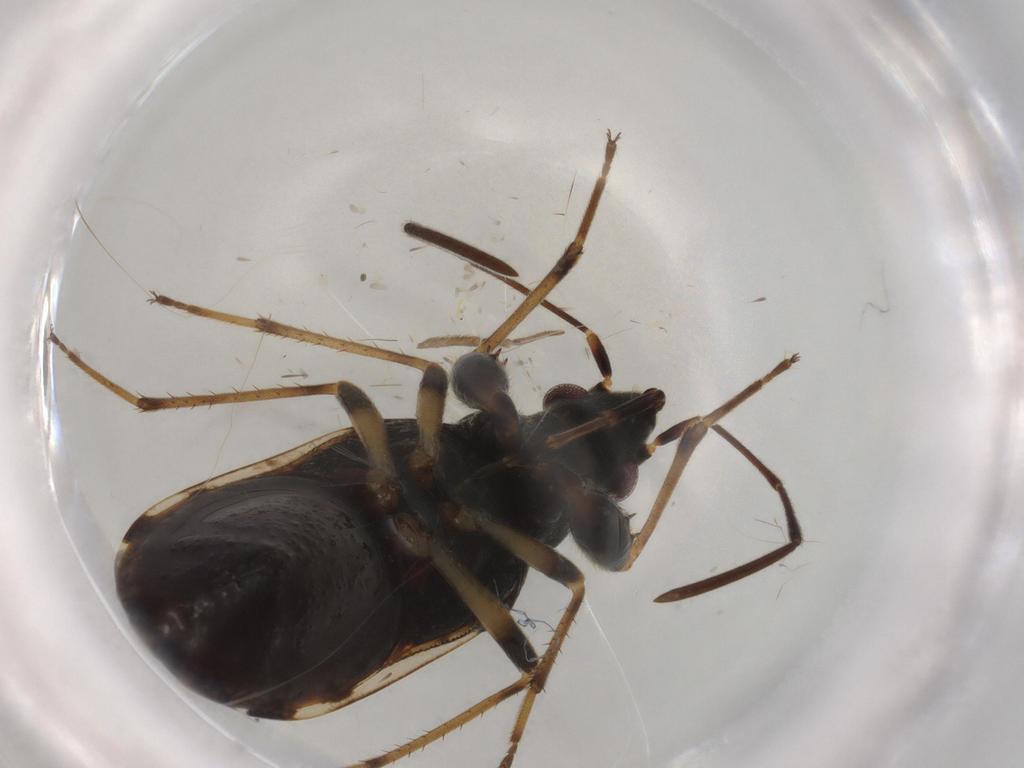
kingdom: Animalia
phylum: Arthropoda
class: Insecta
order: Hemiptera
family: Rhyparochromidae
